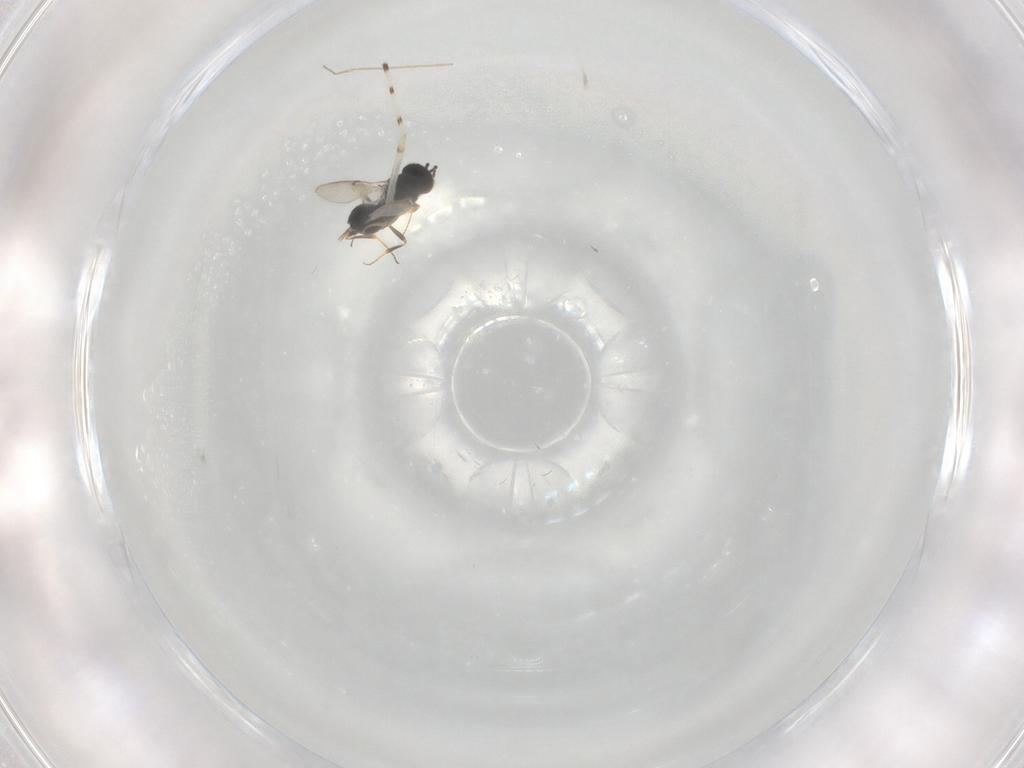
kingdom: Animalia
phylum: Arthropoda
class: Insecta
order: Hymenoptera
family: Scelionidae
